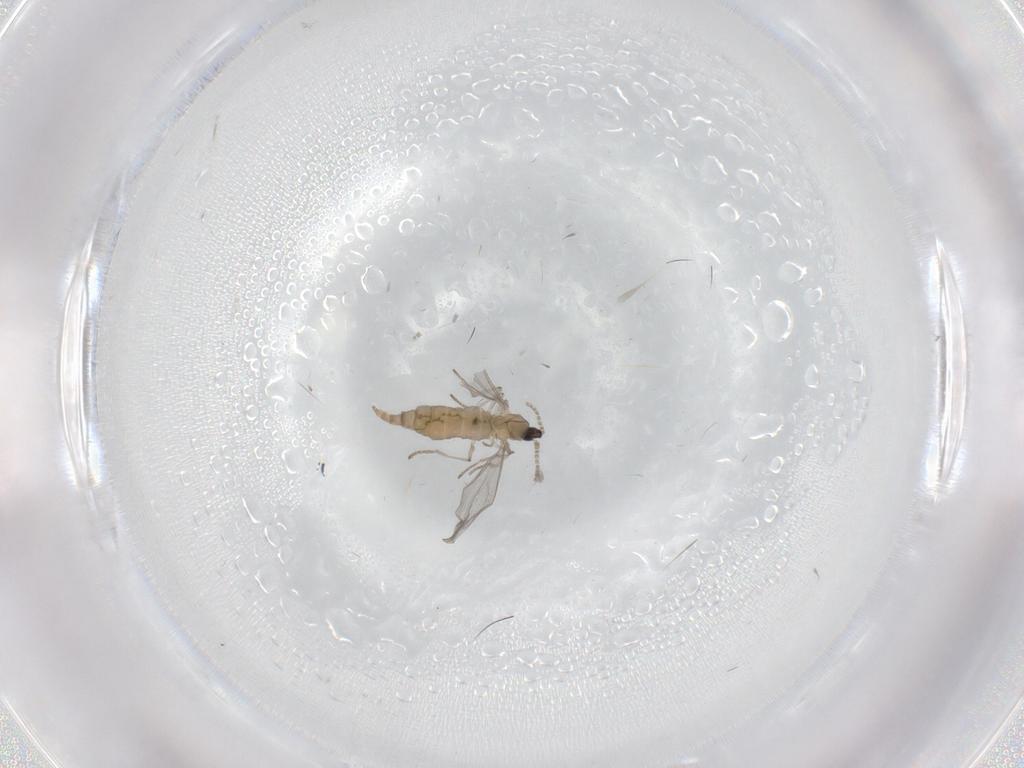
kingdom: Animalia
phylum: Arthropoda
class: Insecta
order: Diptera
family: Cecidomyiidae
